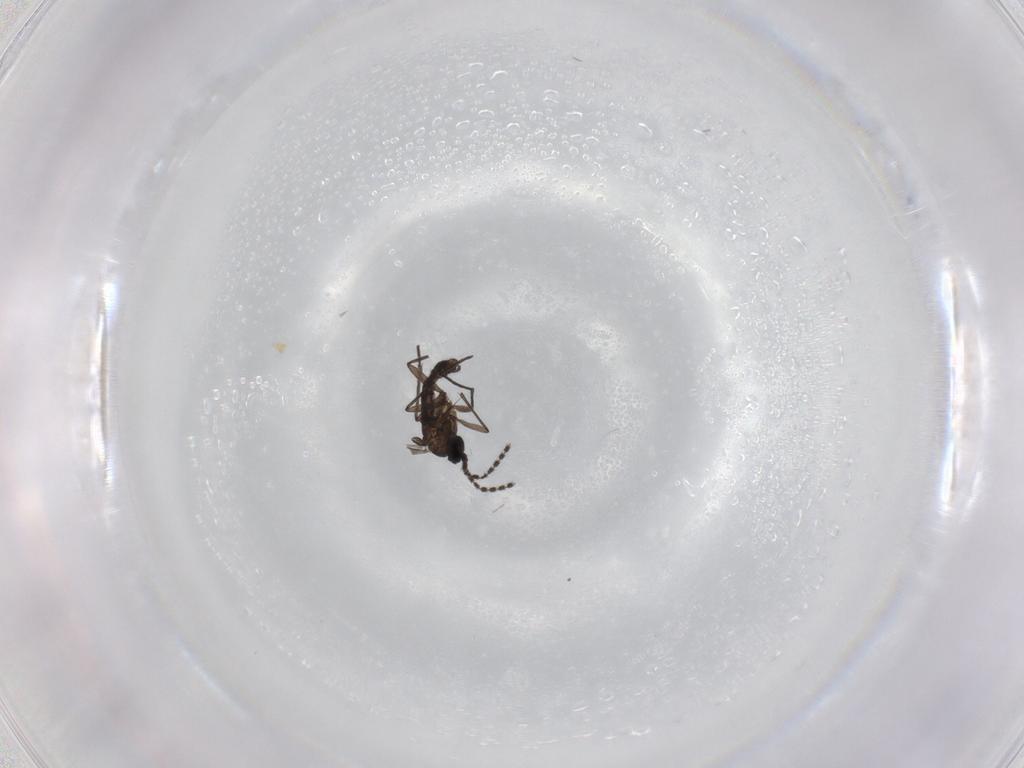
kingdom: Animalia
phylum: Arthropoda
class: Insecta
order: Diptera
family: Cecidomyiidae
